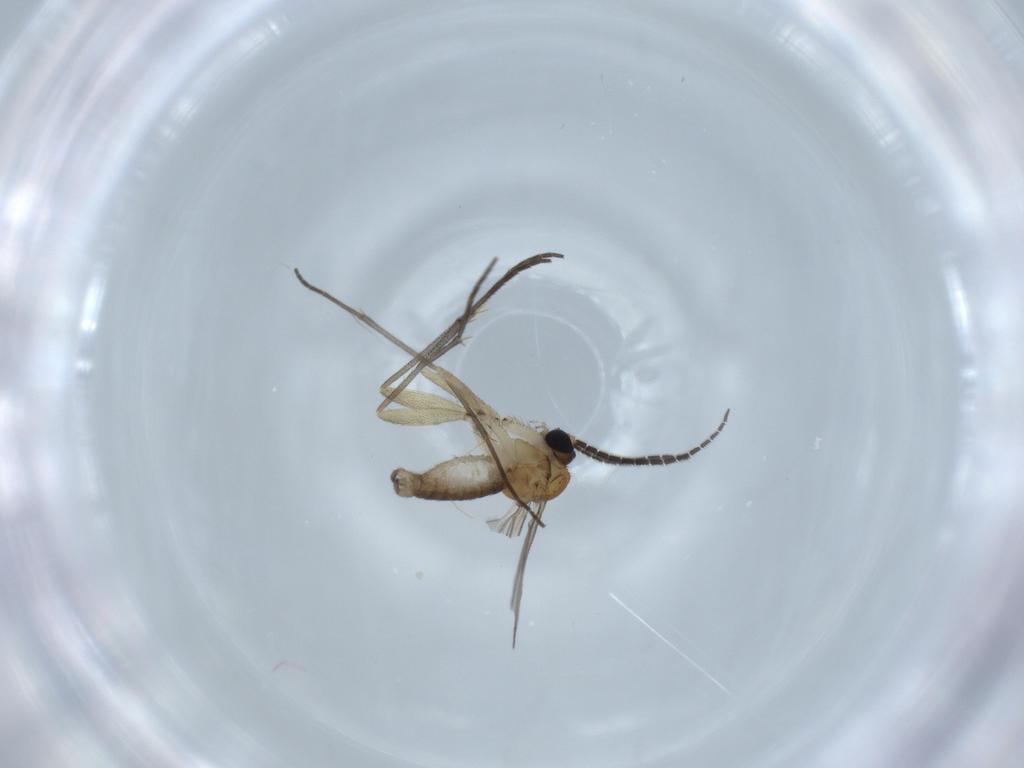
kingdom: Animalia
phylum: Arthropoda
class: Insecta
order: Diptera
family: Sciaridae
